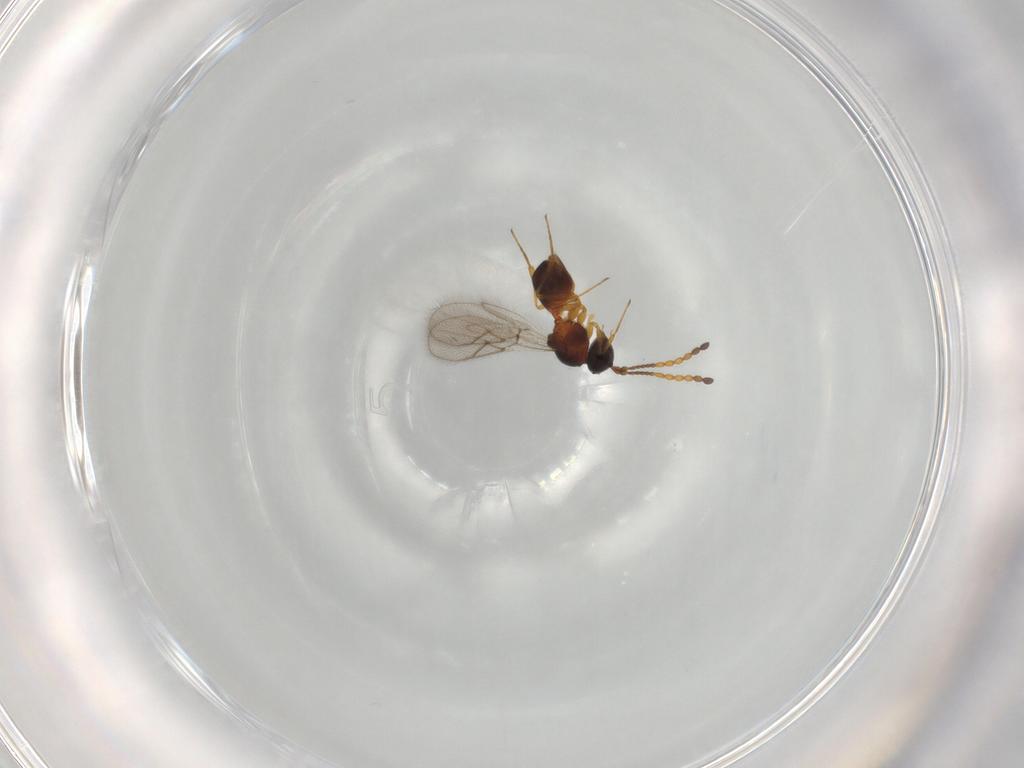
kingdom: Animalia
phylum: Arthropoda
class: Insecta
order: Hymenoptera
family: Figitidae
